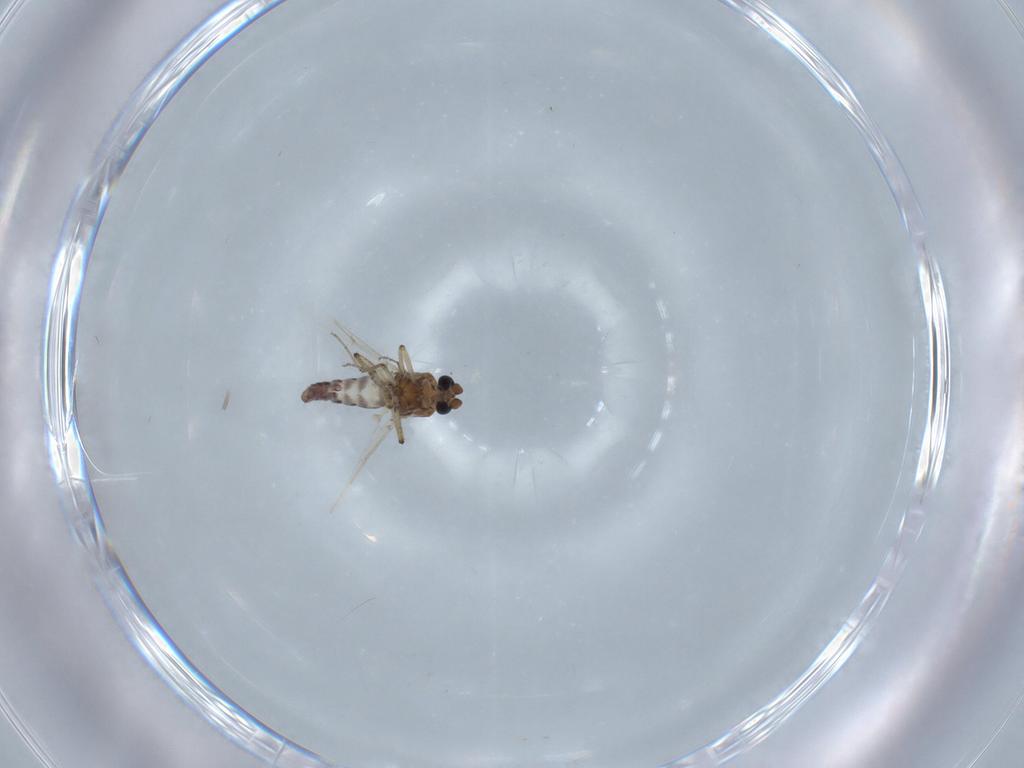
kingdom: Animalia
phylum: Arthropoda
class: Insecta
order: Diptera
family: Ceratopogonidae
